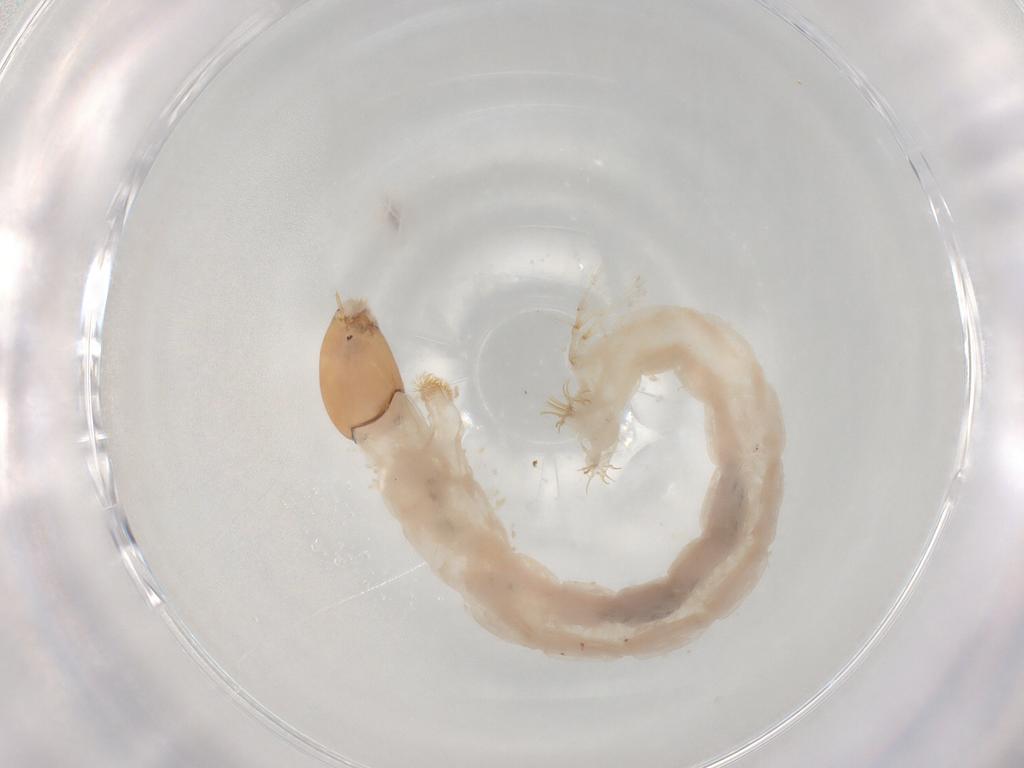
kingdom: Animalia
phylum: Arthropoda
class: Insecta
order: Diptera
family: Chironomidae
